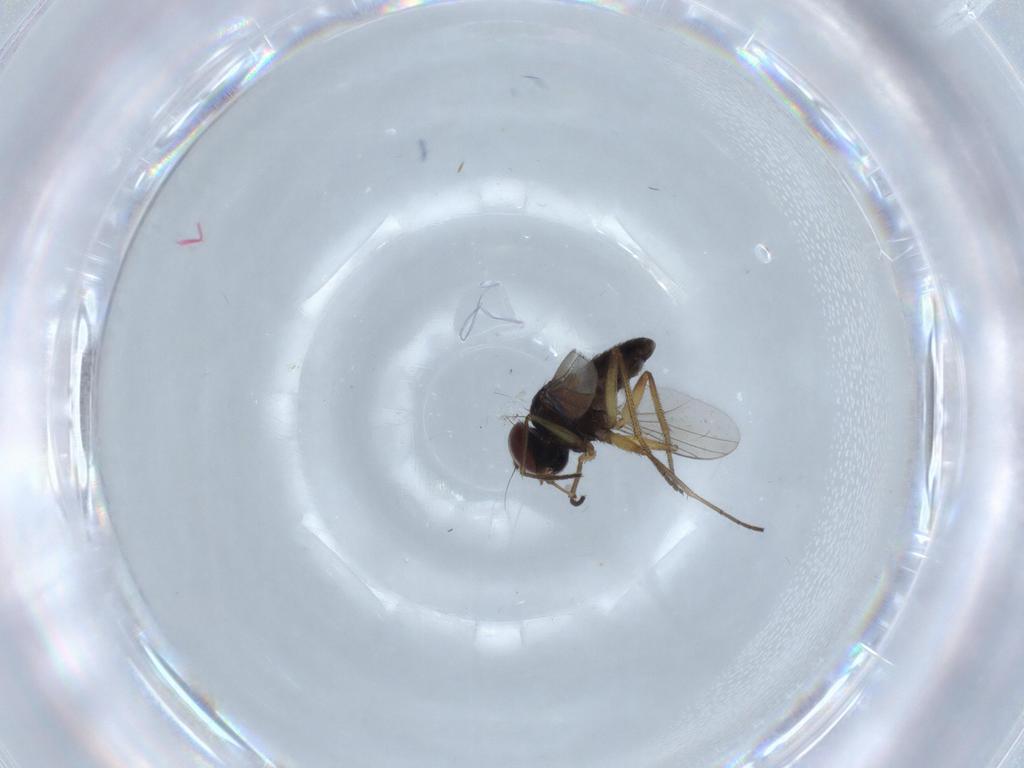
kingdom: Animalia
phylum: Arthropoda
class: Insecta
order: Diptera
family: Dolichopodidae
